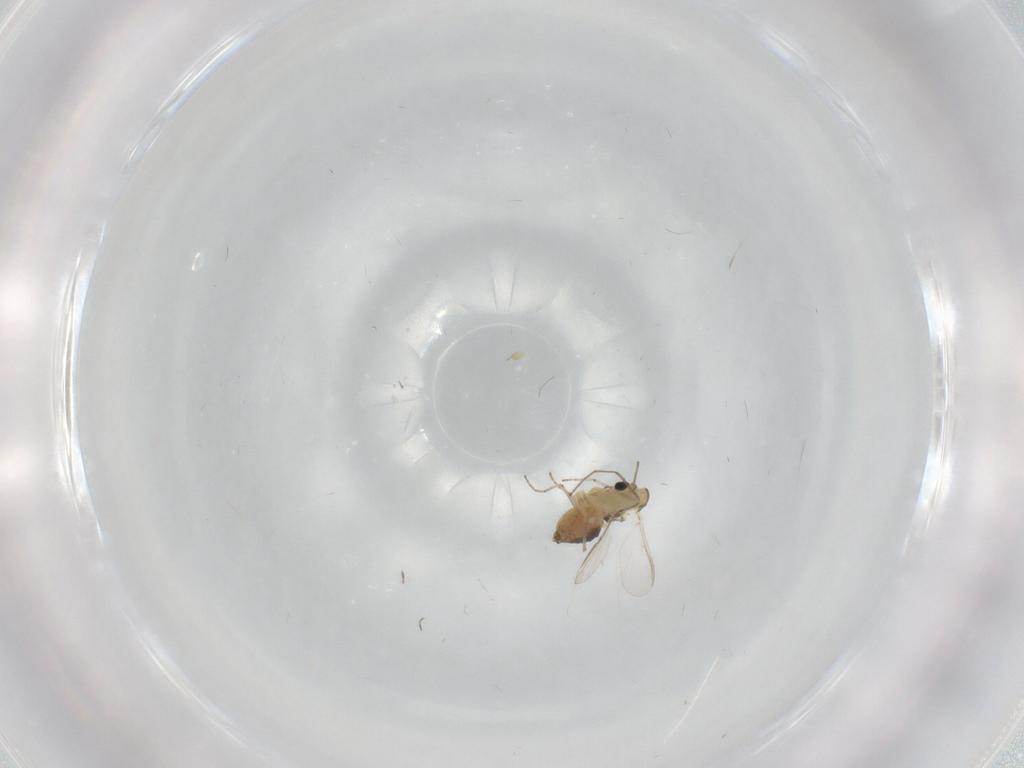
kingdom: Animalia
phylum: Arthropoda
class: Insecta
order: Diptera
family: Chironomidae
